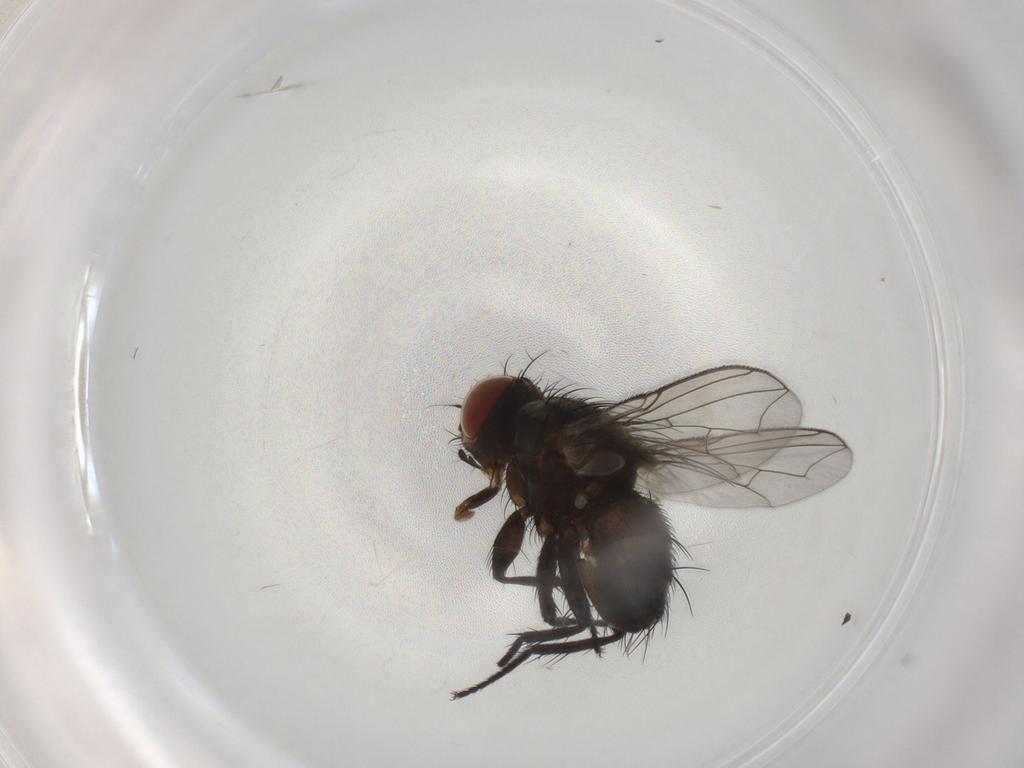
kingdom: Animalia
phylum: Arthropoda
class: Insecta
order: Diptera
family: Sarcophagidae
